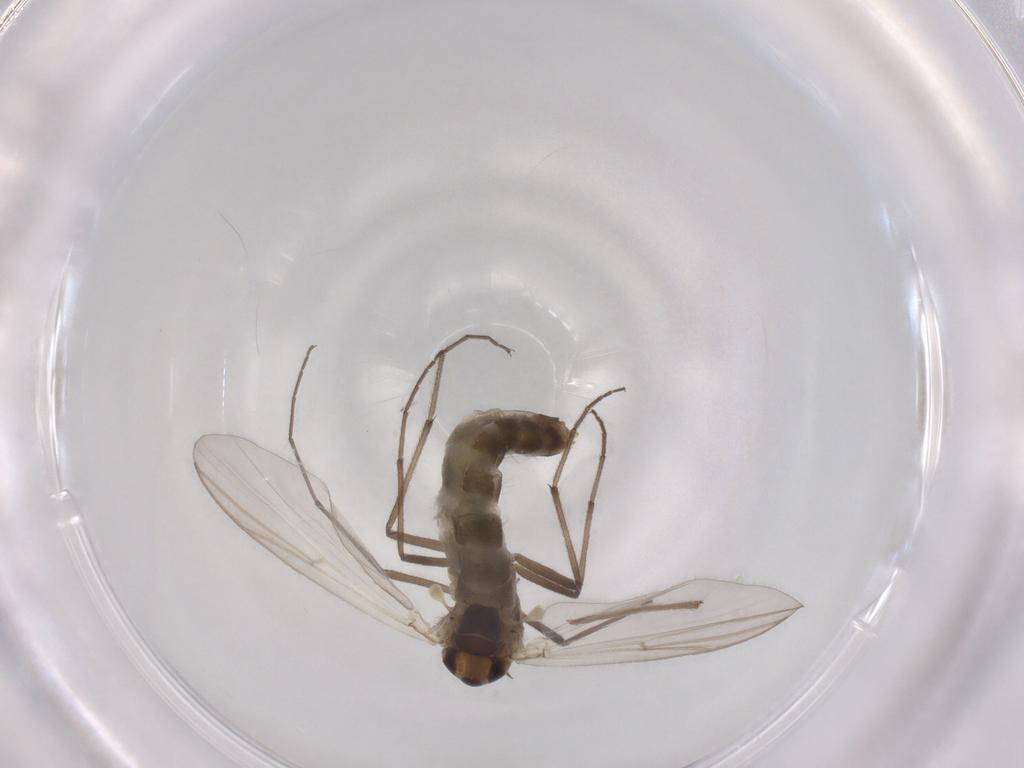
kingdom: Animalia
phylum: Arthropoda
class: Insecta
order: Diptera
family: Chironomidae
